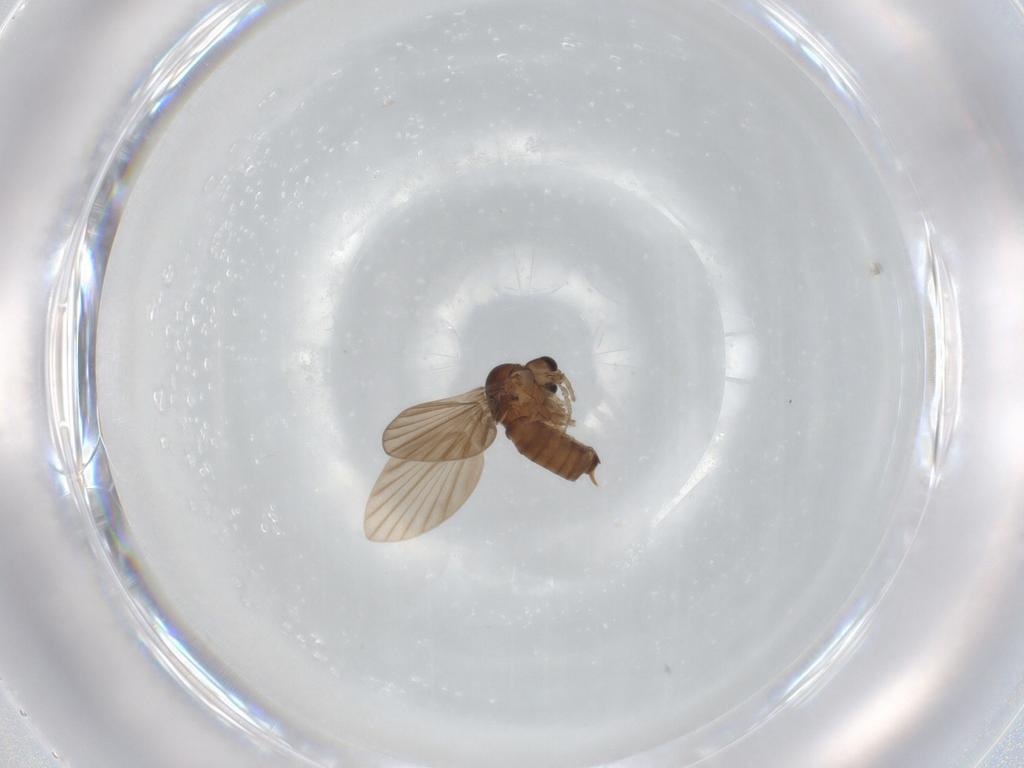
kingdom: Animalia
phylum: Arthropoda
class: Insecta
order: Diptera
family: Psychodidae
